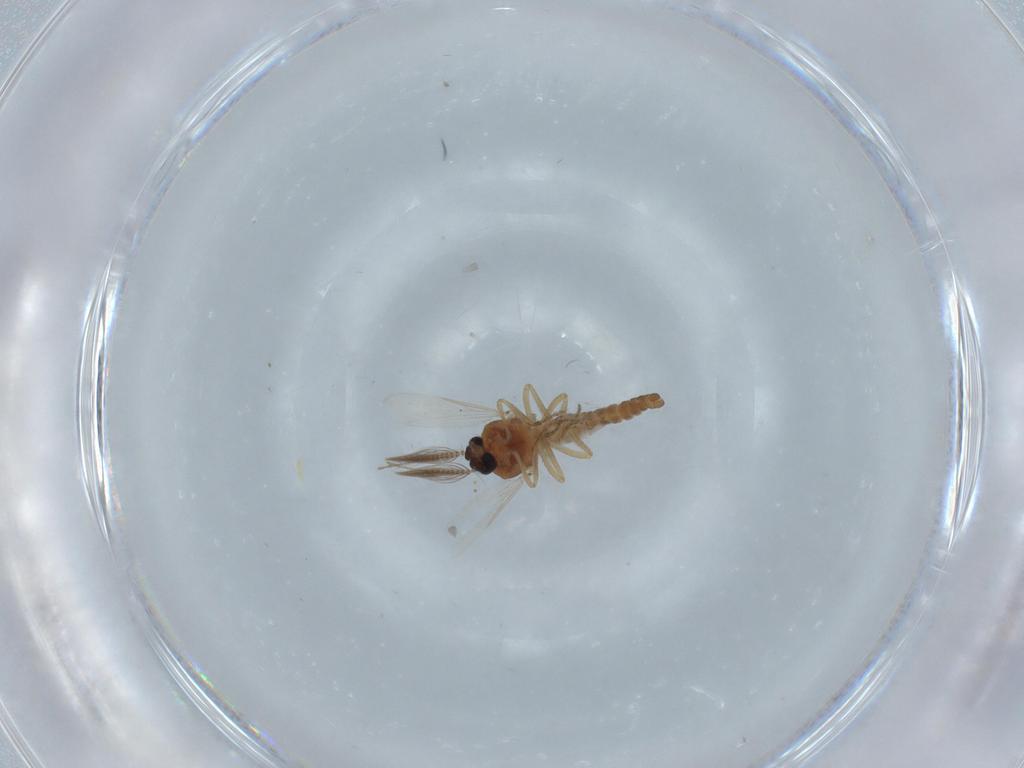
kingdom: Animalia
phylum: Arthropoda
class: Insecta
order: Diptera
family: Ceratopogonidae
